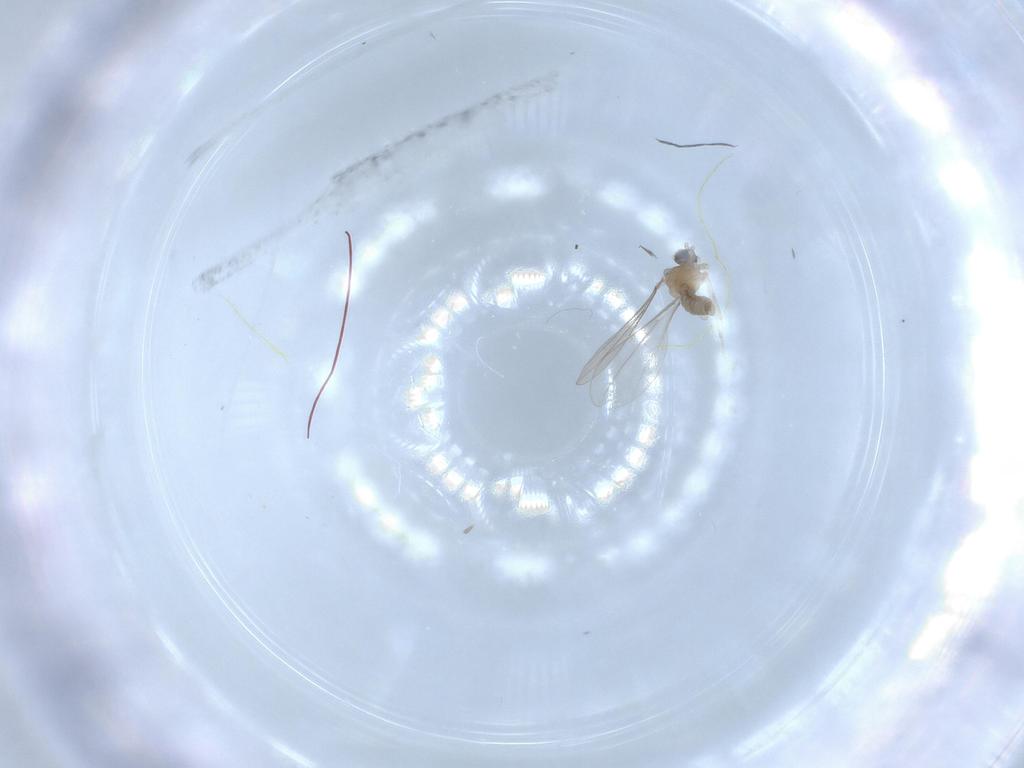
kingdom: Animalia
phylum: Arthropoda
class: Insecta
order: Diptera
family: Cecidomyiidae
